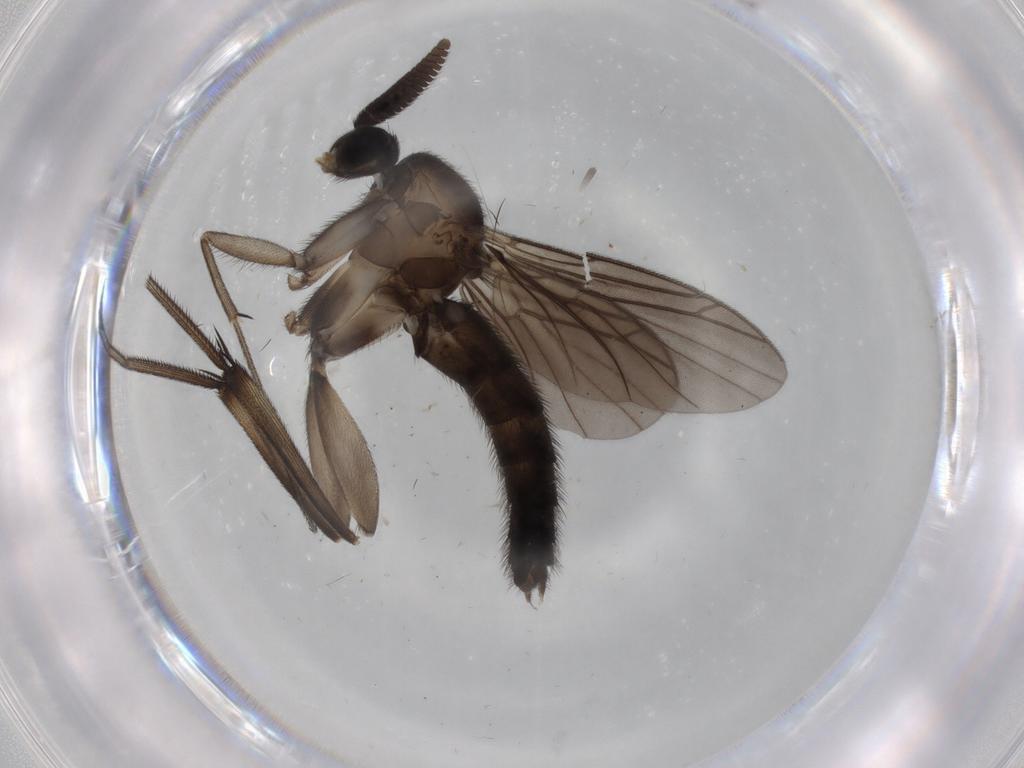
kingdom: Animalia
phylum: Arthropoda
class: Insecta
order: Diptera
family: Keroplatidae
